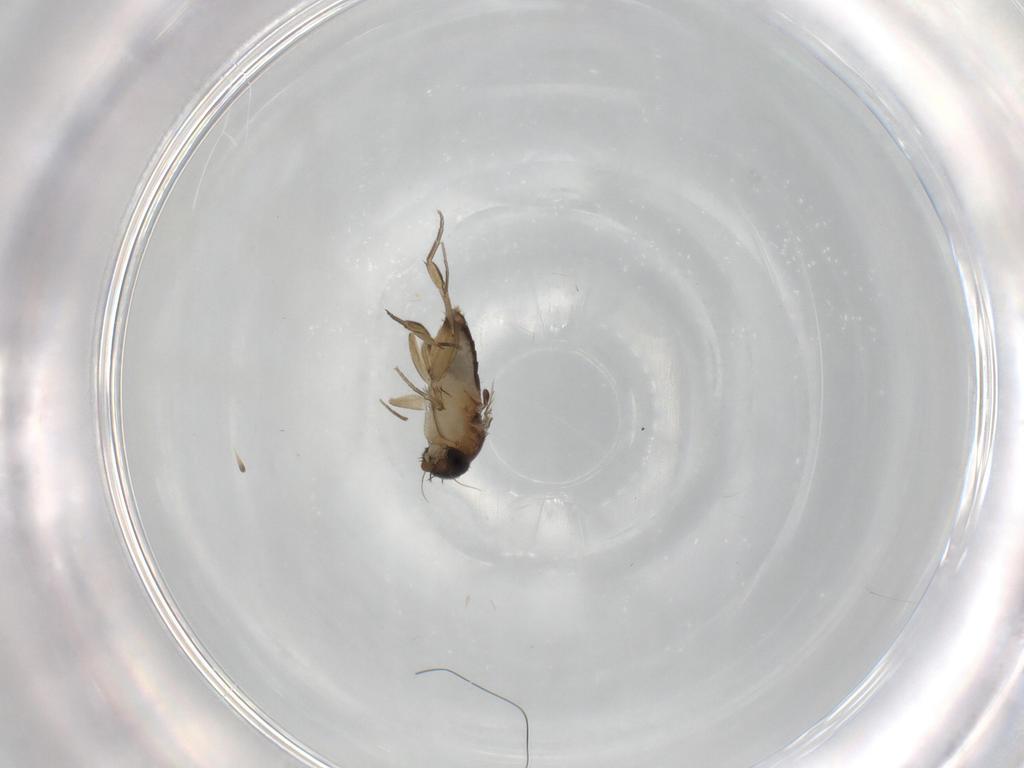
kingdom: Animalia
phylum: Arthropoda
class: Insecta
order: Diptera
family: Phoridae
